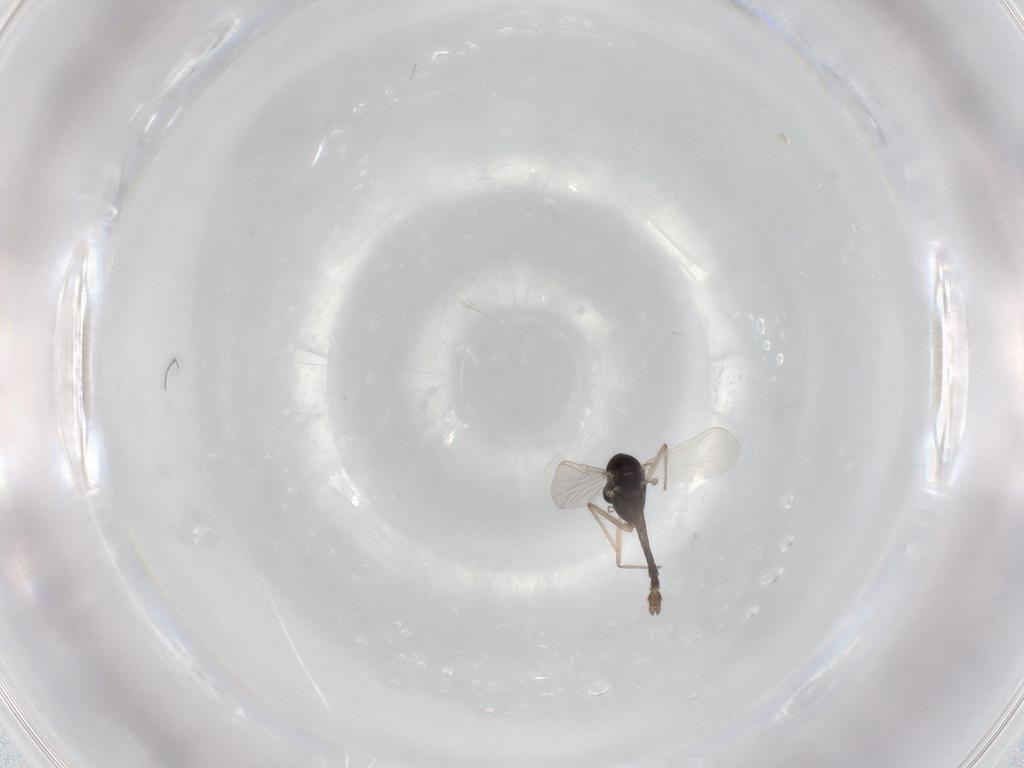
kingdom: Animalia
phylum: Arthropoda
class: Insecta
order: Diptera
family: Chironomidae
